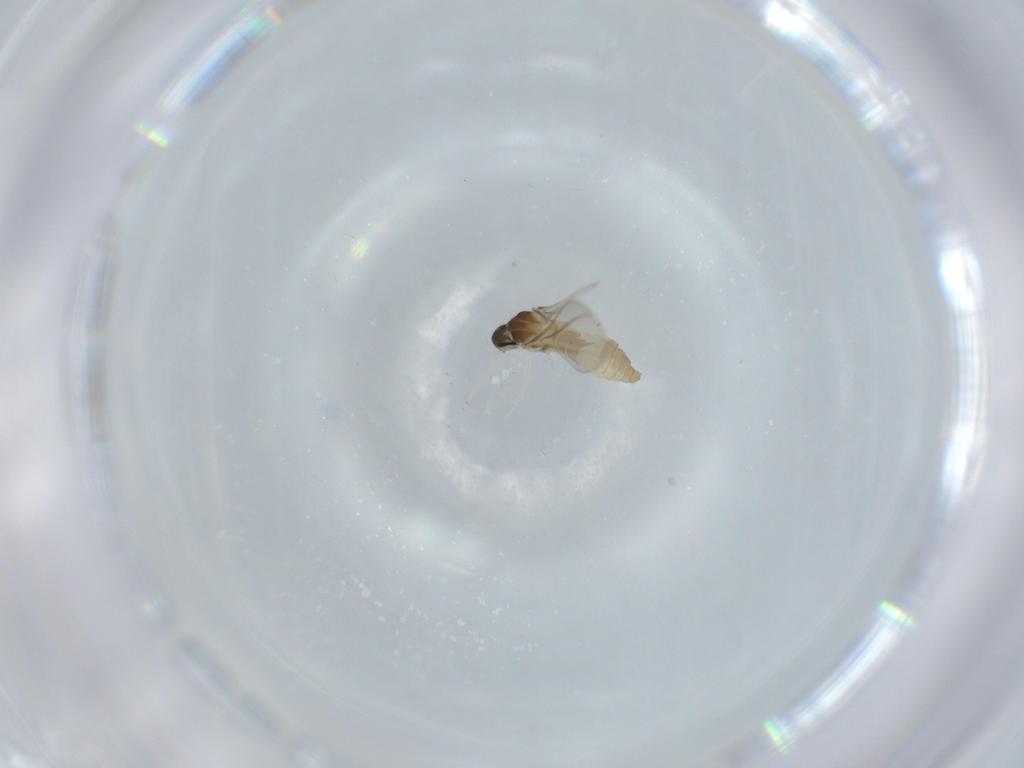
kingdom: Animalia
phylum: Arthropoda
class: Insecta
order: Diptera
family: Cecidomyiidae
